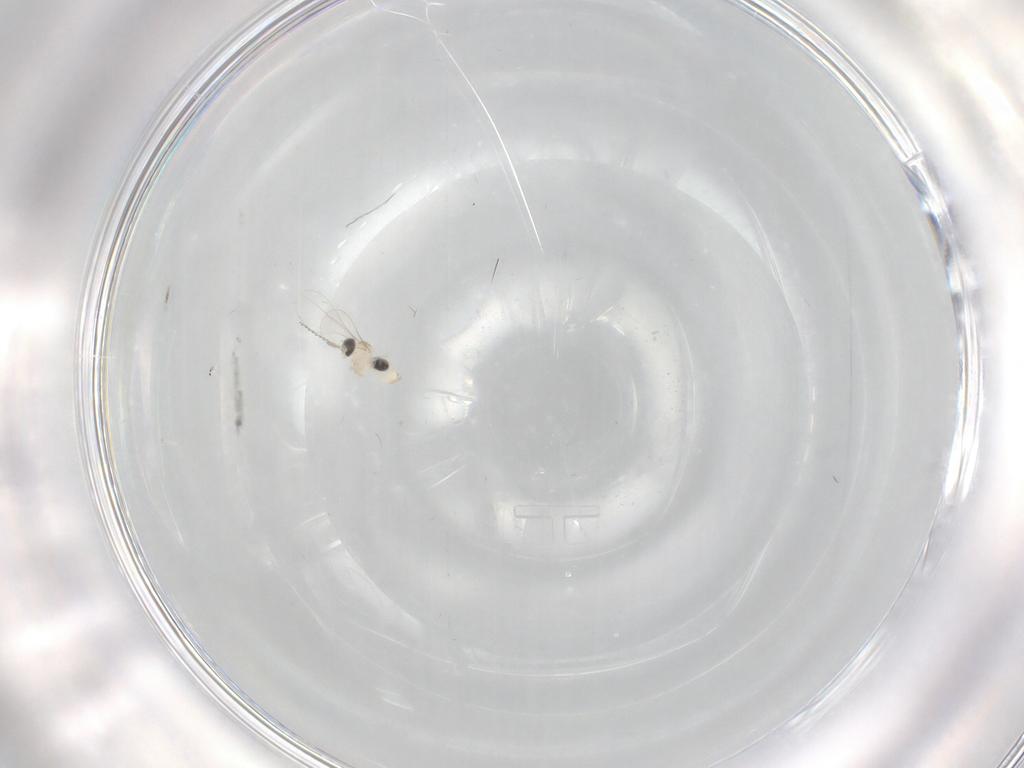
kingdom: Animalia
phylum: Arthropoda
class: Insecta
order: Diptera
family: Cecidomyiidae
